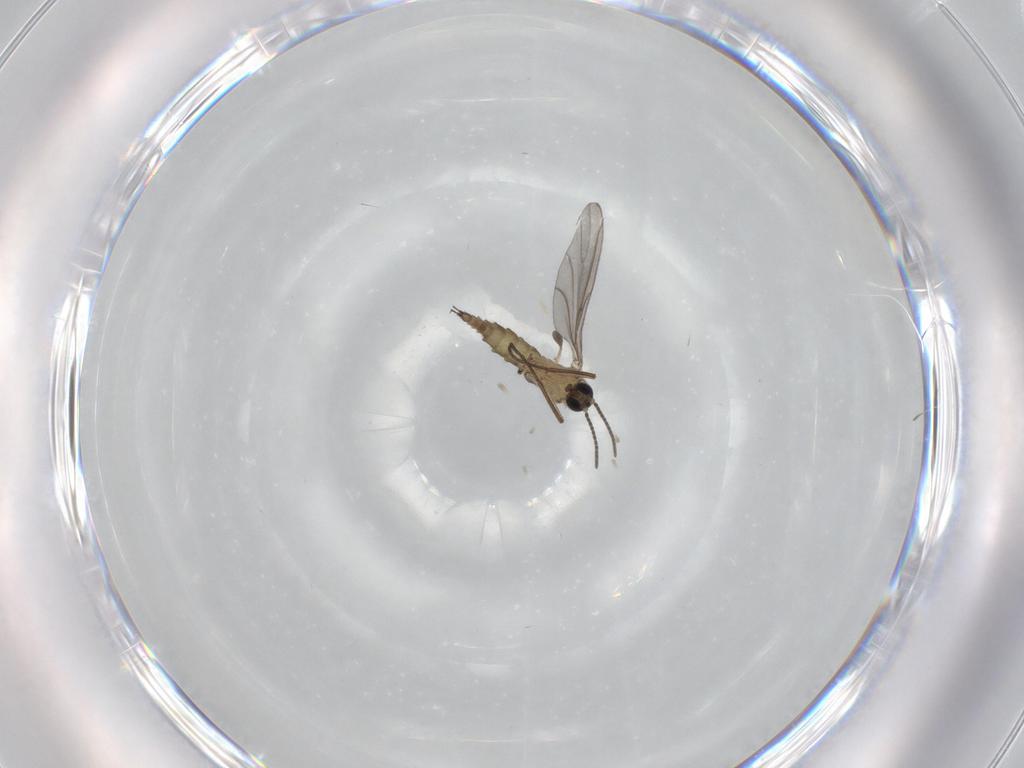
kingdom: Animalia
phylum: Arthropoda
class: Insecta
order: Diptera
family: Sciaridae
